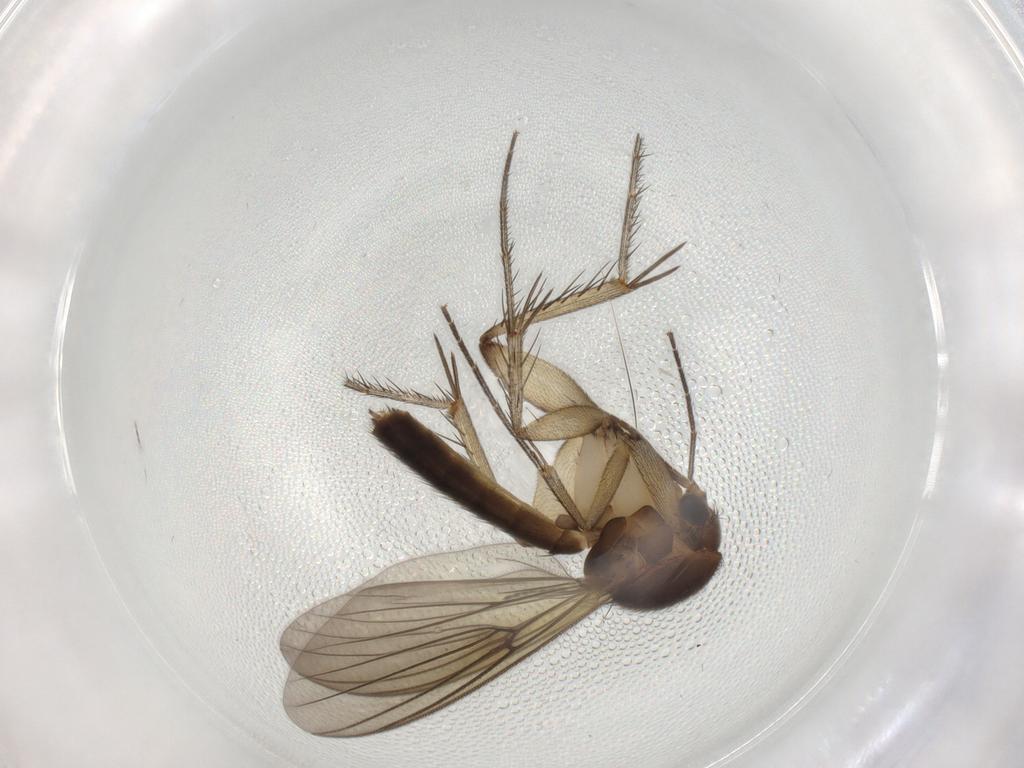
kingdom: Animalia
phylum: Arthropoda
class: Insecta
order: Diptera
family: Mycetophilidae
